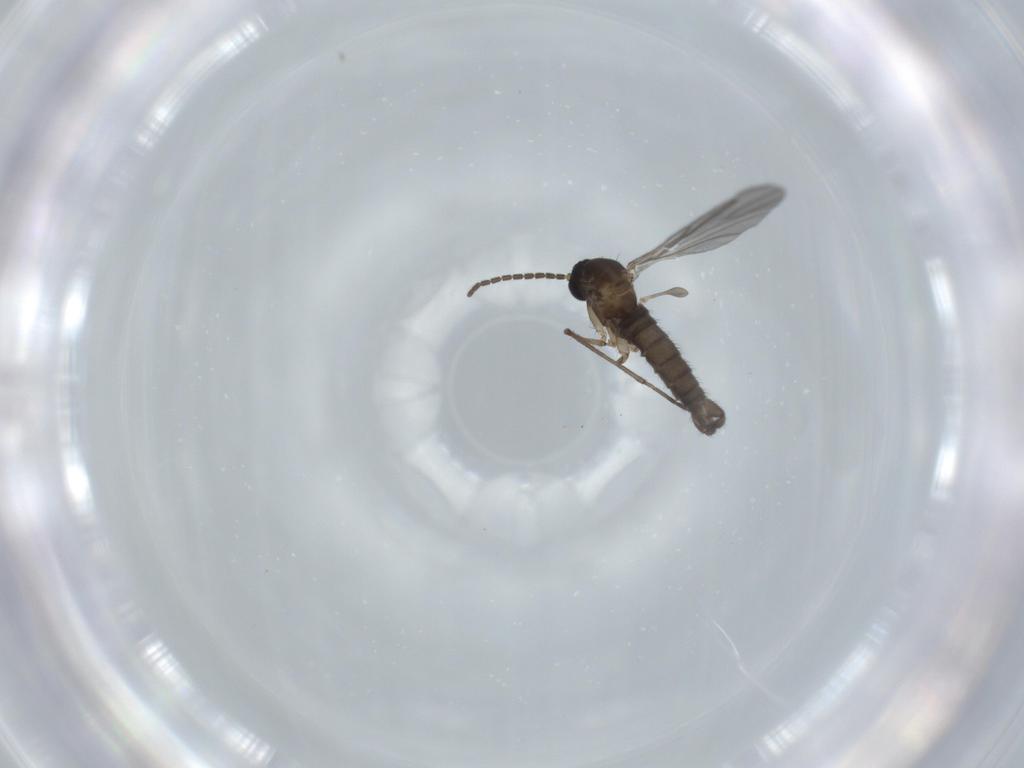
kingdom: Animalia
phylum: Arthropoda
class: Insecta
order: Diptera
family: Sciaridae
